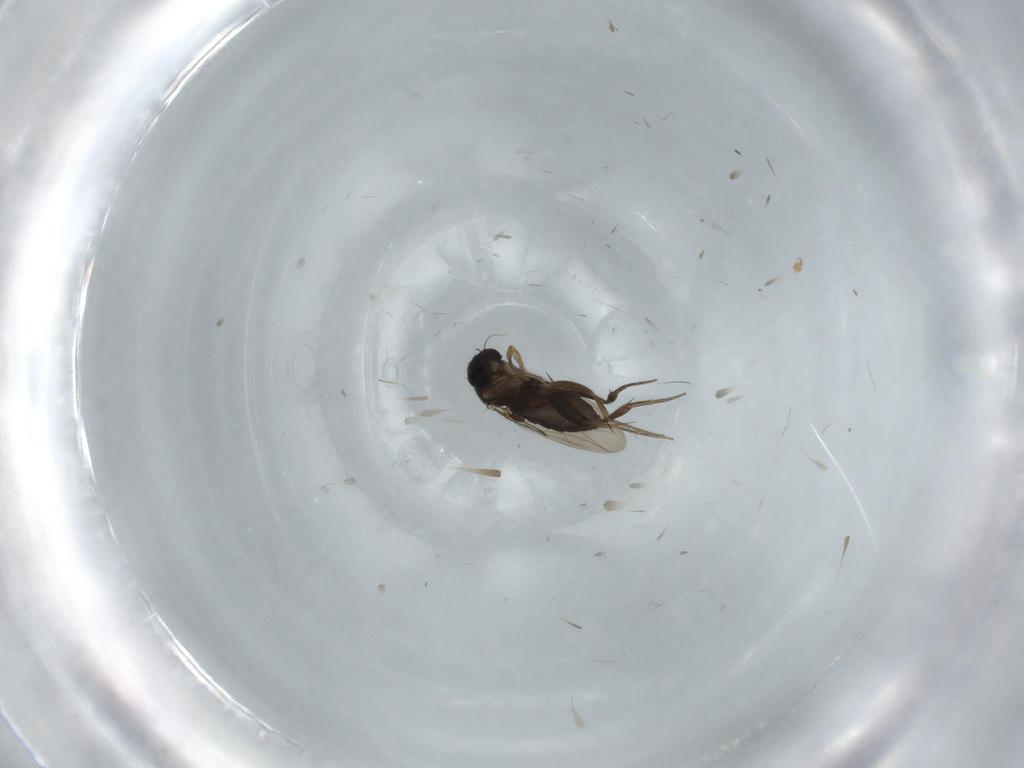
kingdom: Animalia
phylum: Arthropoda
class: Insecta
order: Diptera
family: Phoridae
